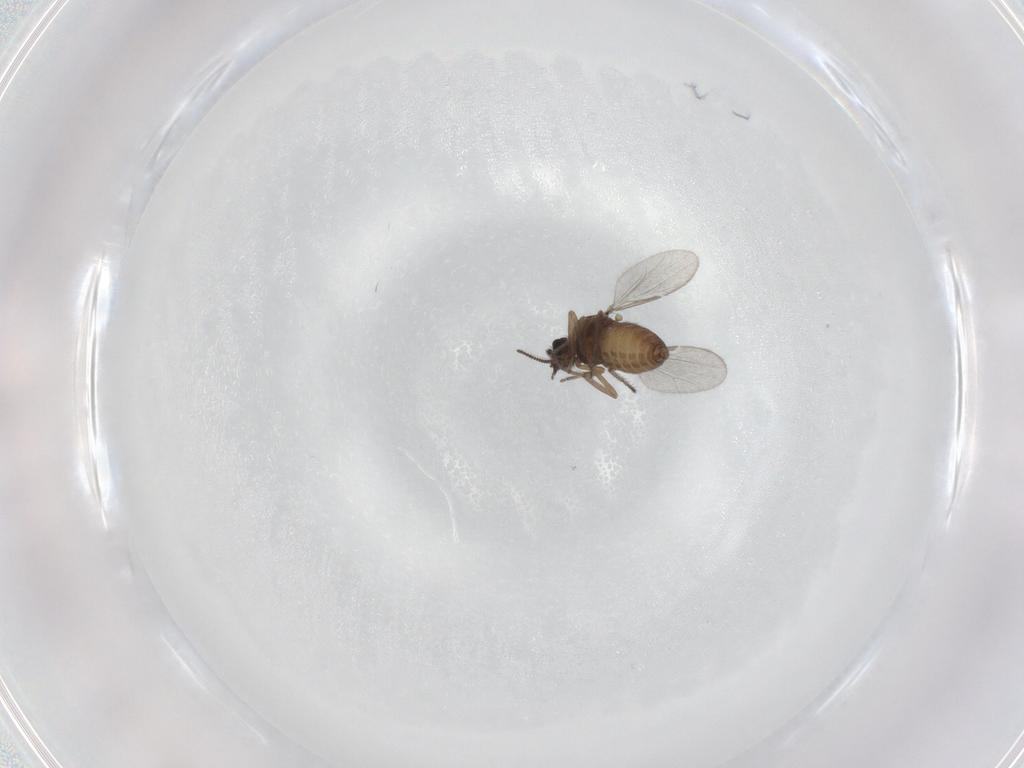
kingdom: Animalia
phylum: Arthropoda
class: Insecta
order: Diptera
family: Ceratopogonidae
